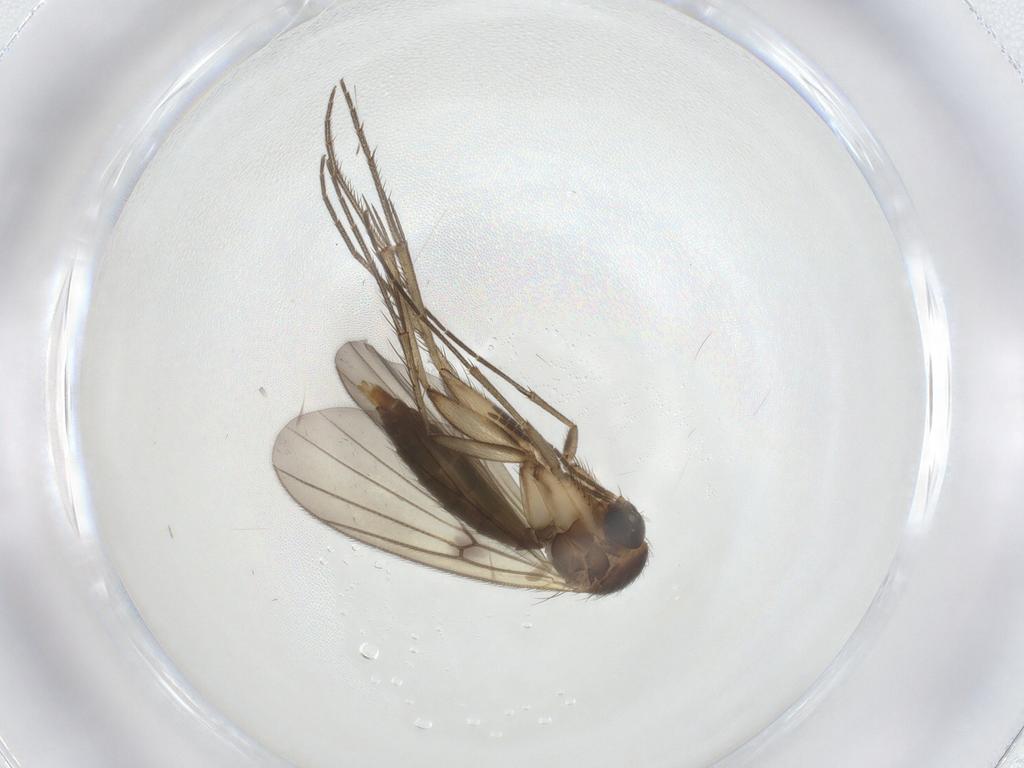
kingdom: Animalia
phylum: Arthropoda
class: Insecta
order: Diptera
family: Mycetophilidae
